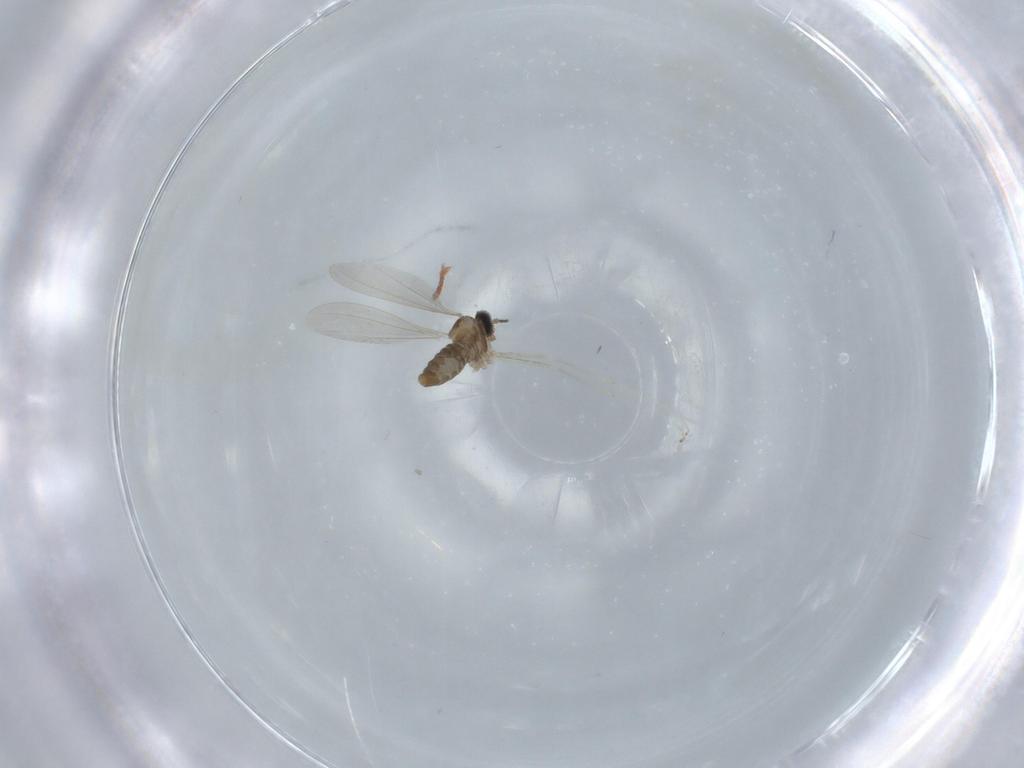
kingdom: Animalia
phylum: Arthropoda
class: Insecta
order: Diptera
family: Cecidomyiidae
